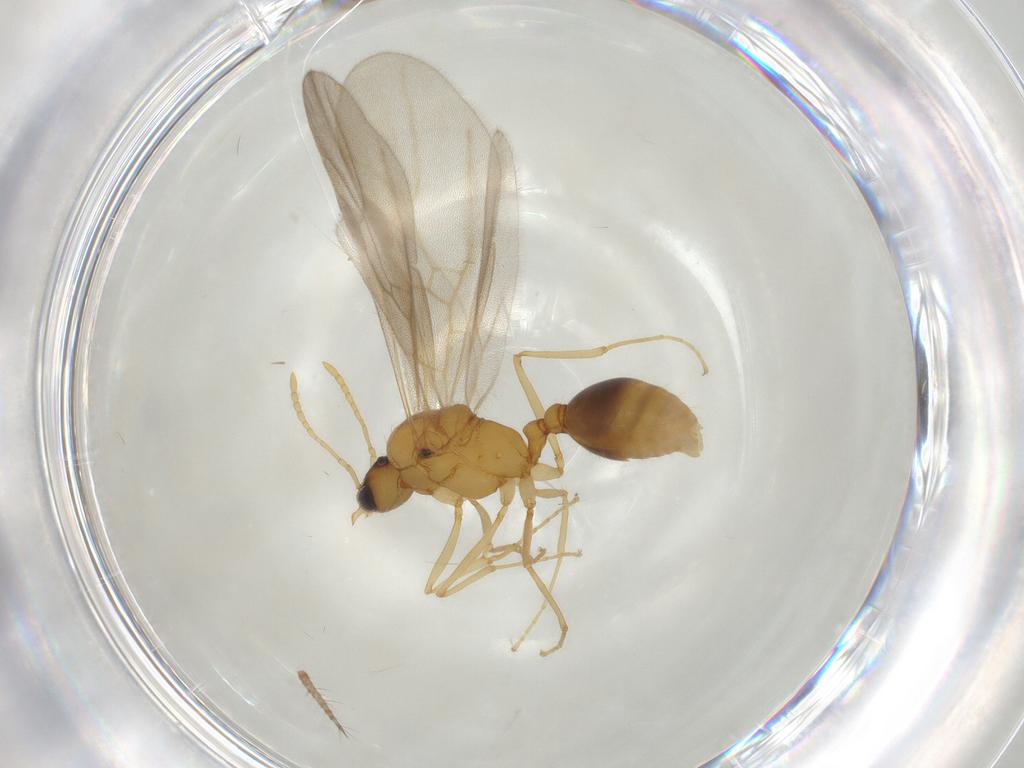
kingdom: Animalia
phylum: Arthropoda
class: Insecta
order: Hymenoptera
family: Formicidae
